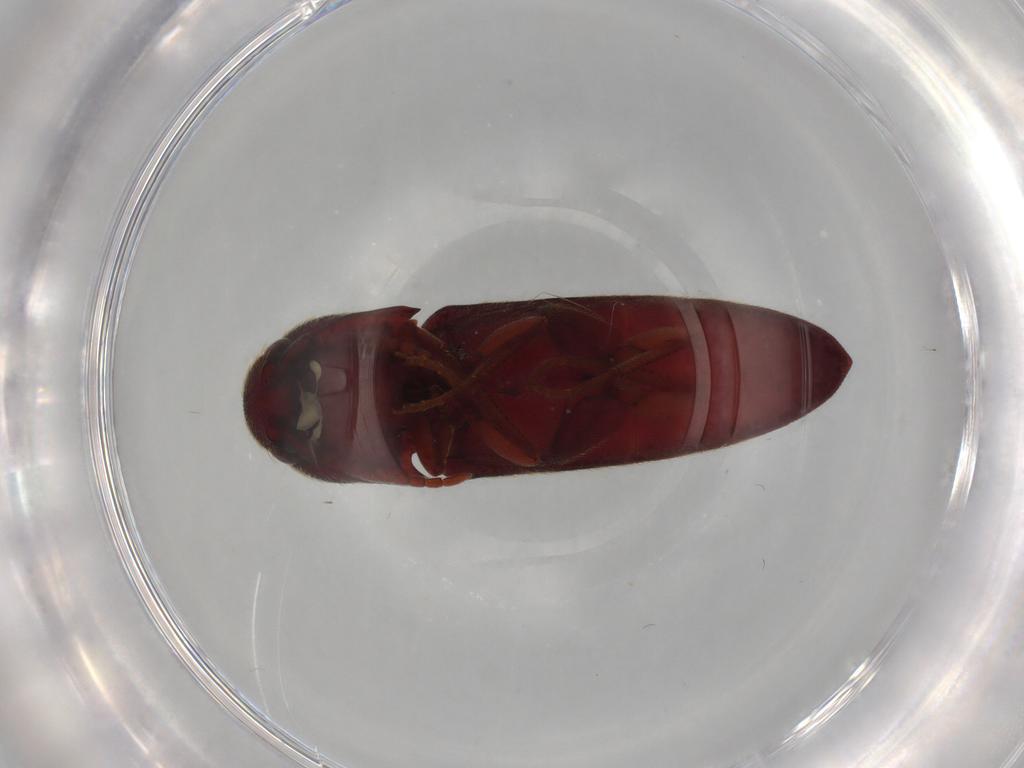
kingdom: Animalia
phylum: Arthropoda
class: Insecta
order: Coleoptera
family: Eucnemidae
